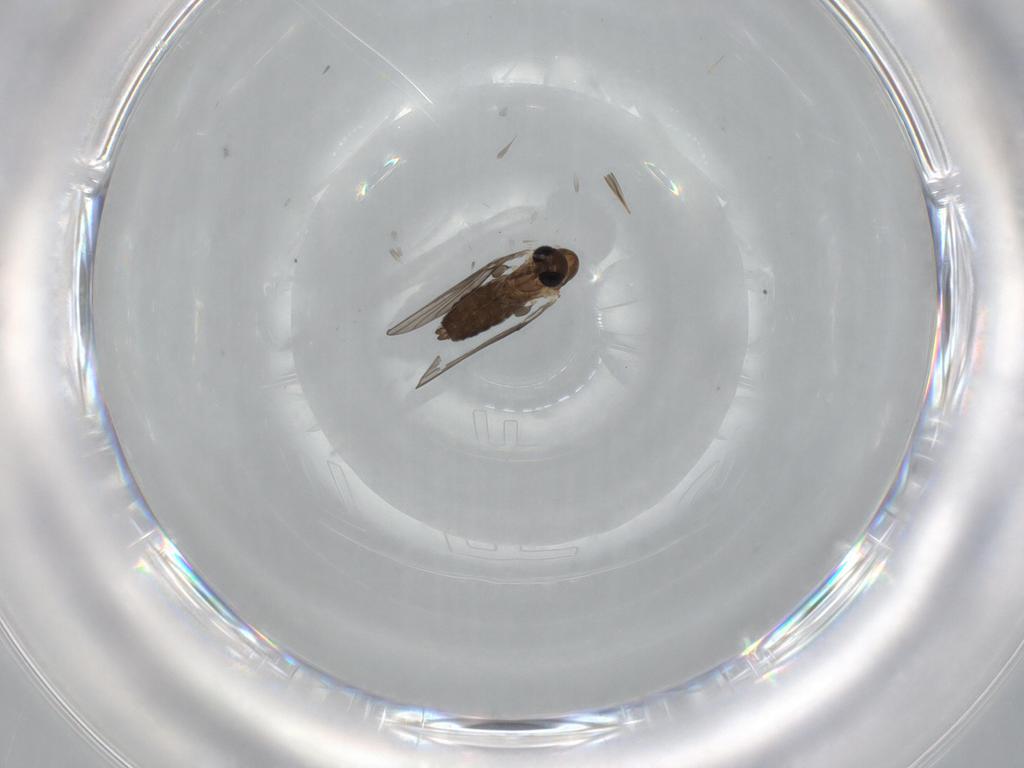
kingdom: Animalia
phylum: Arthropoda
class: Insecta
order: Diptera
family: Psychodidae
